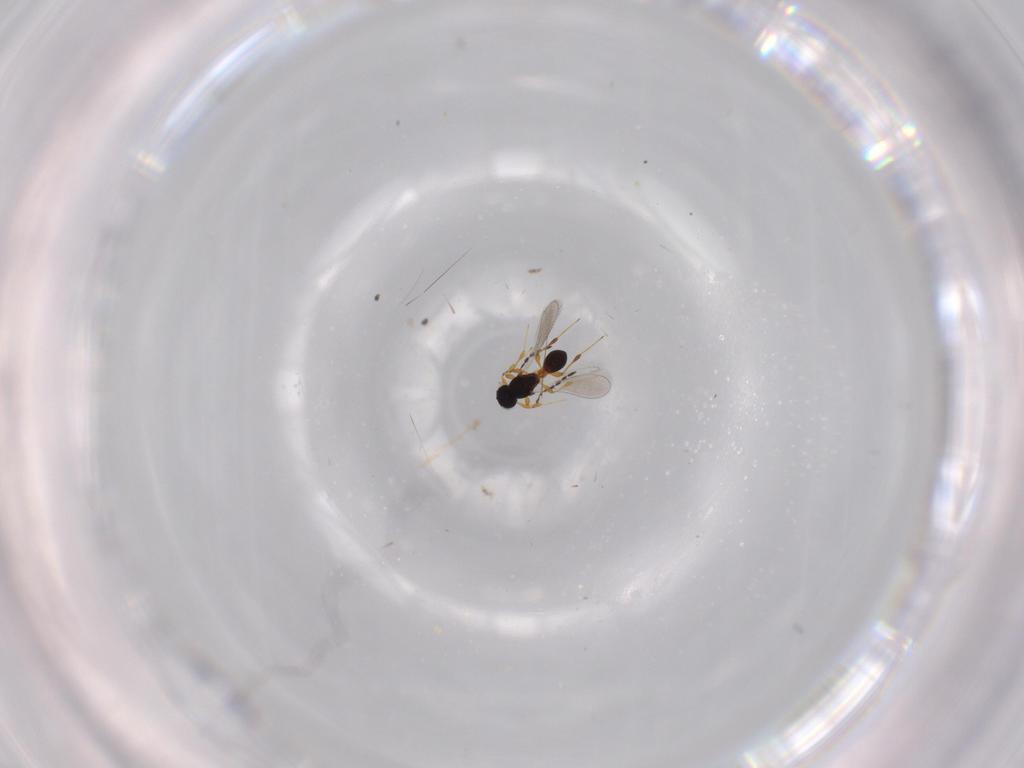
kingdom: Animalia
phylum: Arthropoda
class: Insecta
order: Hymenoptera
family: Platygastridae
